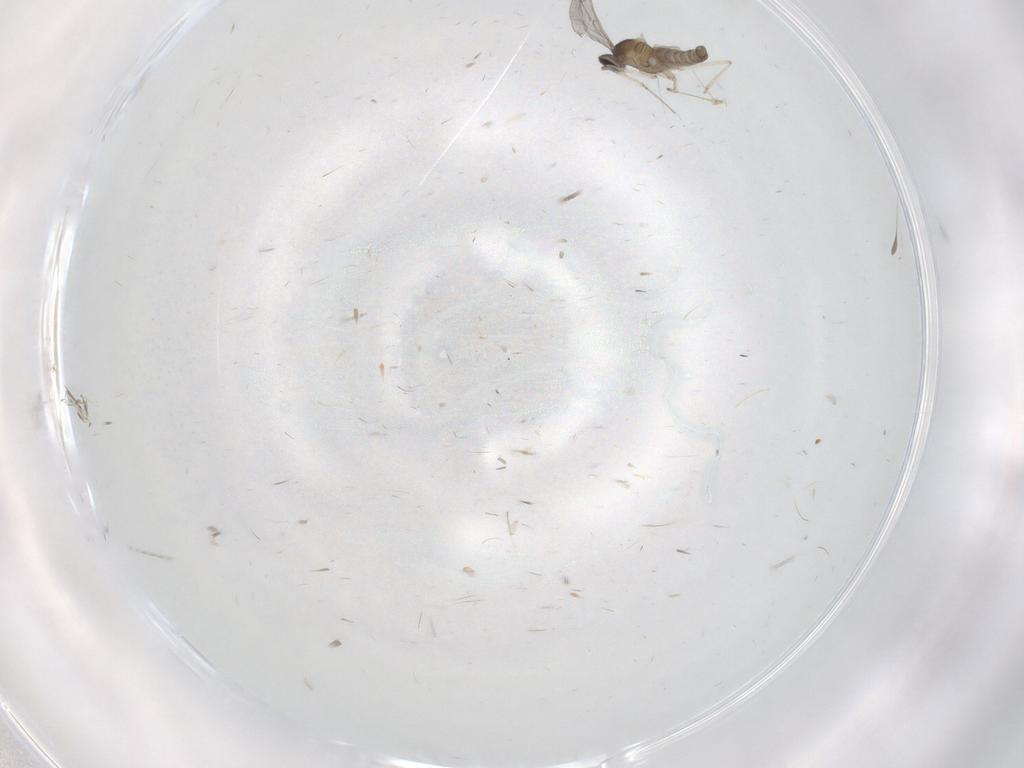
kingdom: Animalia
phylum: Arthropoda
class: Insecta
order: Diptera
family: Cecidomyiidae
